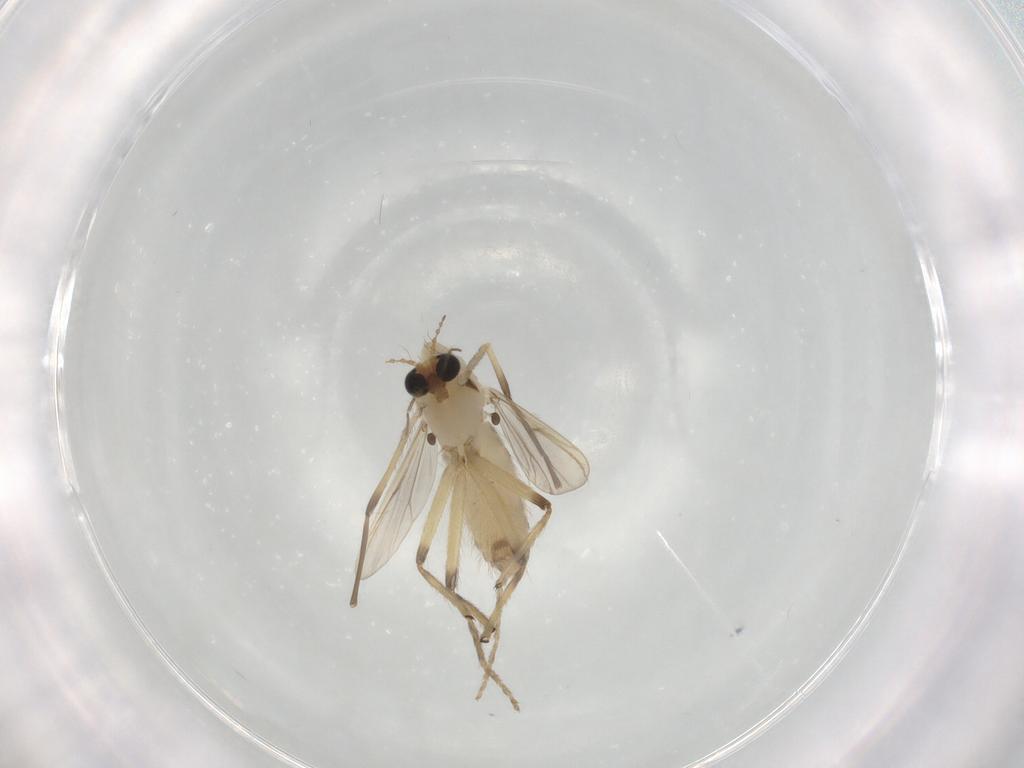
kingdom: Animalia
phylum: Arthropoda
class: Insecta
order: Diptera
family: Chironomidae
